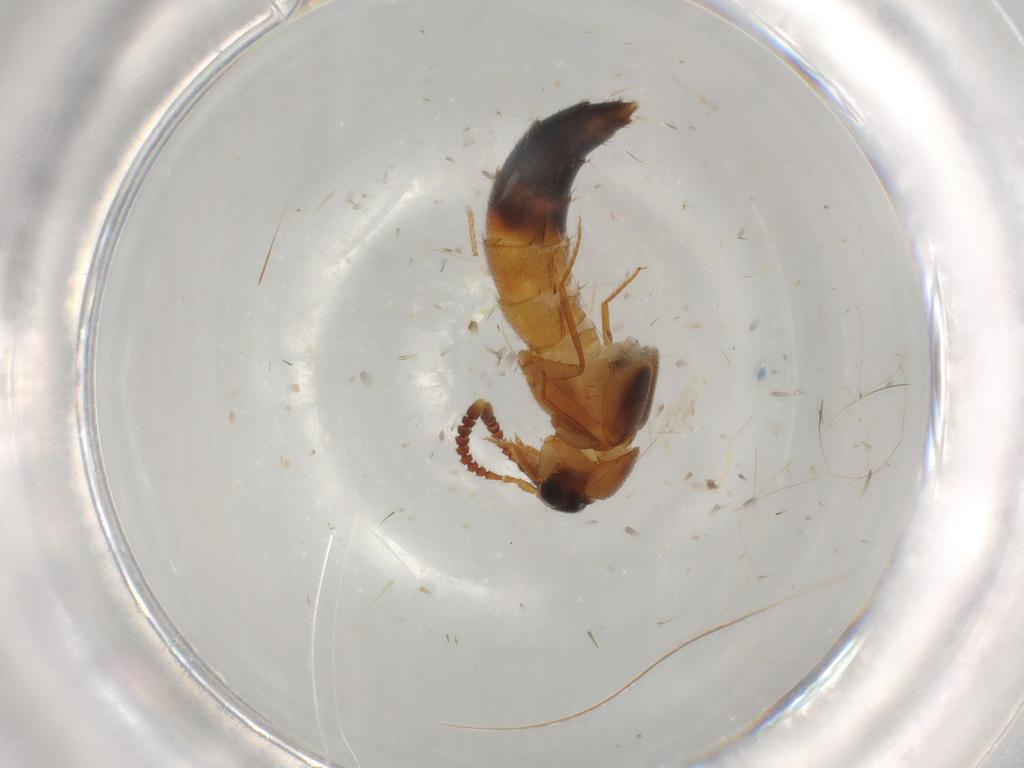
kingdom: Animalia
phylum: Arthropoda
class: Insecta
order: Coleoptera
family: Staphylinidae
